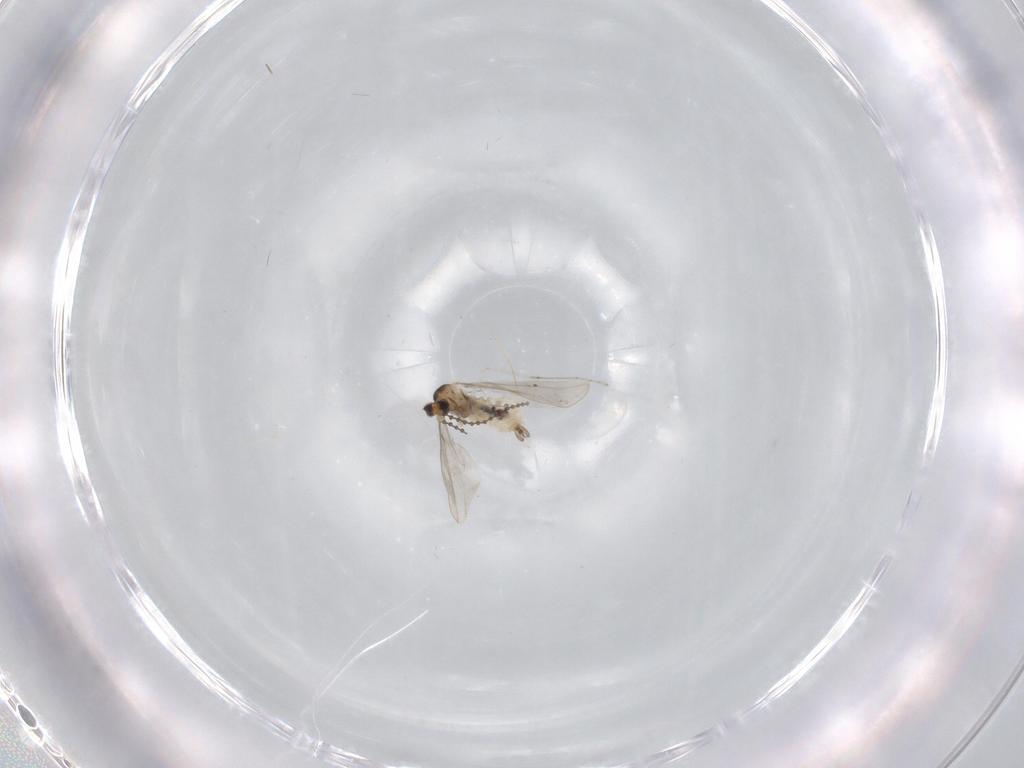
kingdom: Animalia
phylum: Arthropoda
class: Insecta
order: Diptera
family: Cecidomyiidae
